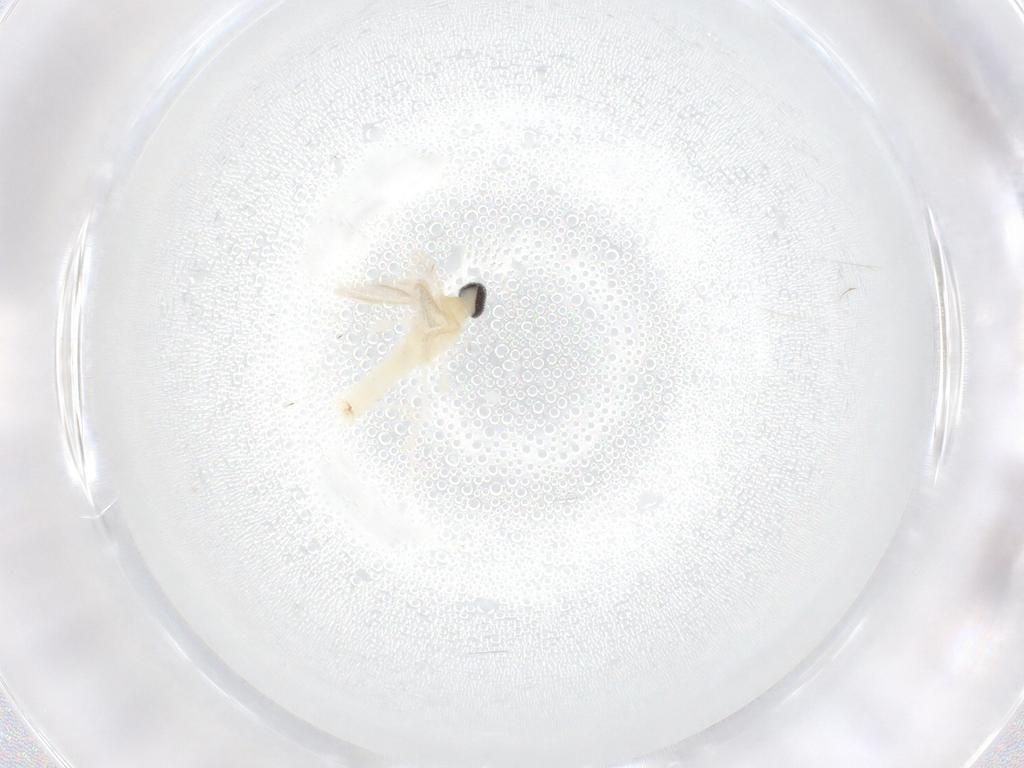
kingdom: Animalia
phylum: Arthropoda
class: Insecta
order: Diptera
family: Cecidomyiidae
